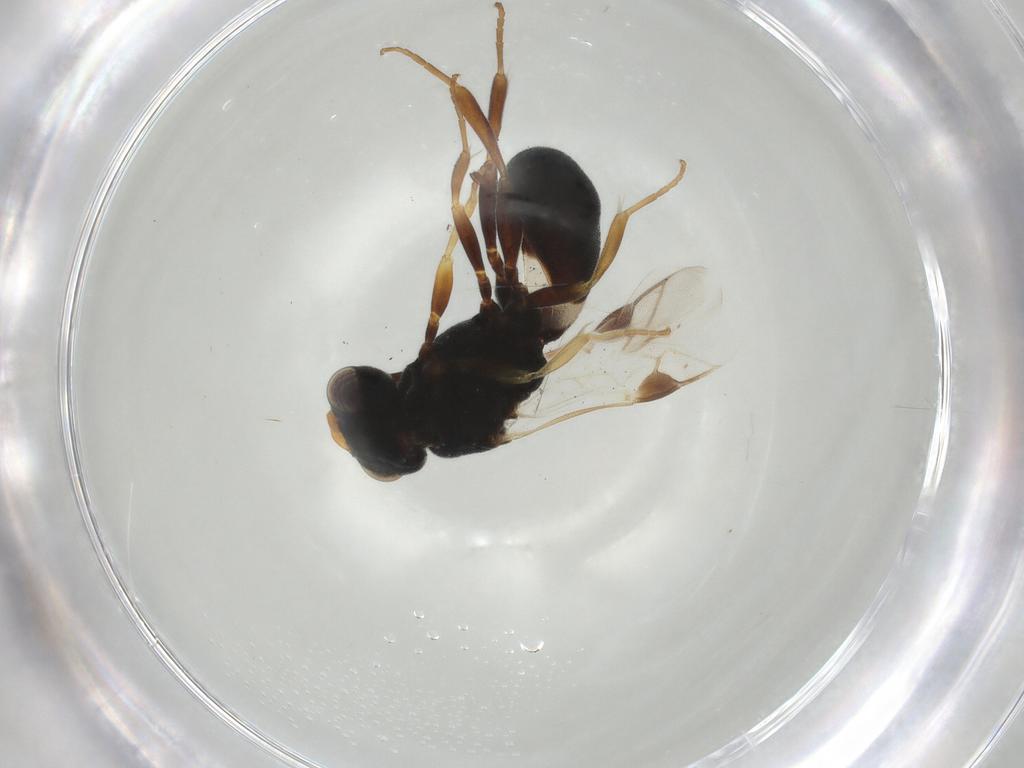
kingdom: Animalia
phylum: Arthropoda
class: Insecta
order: Hymenoptera
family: Braconidae
